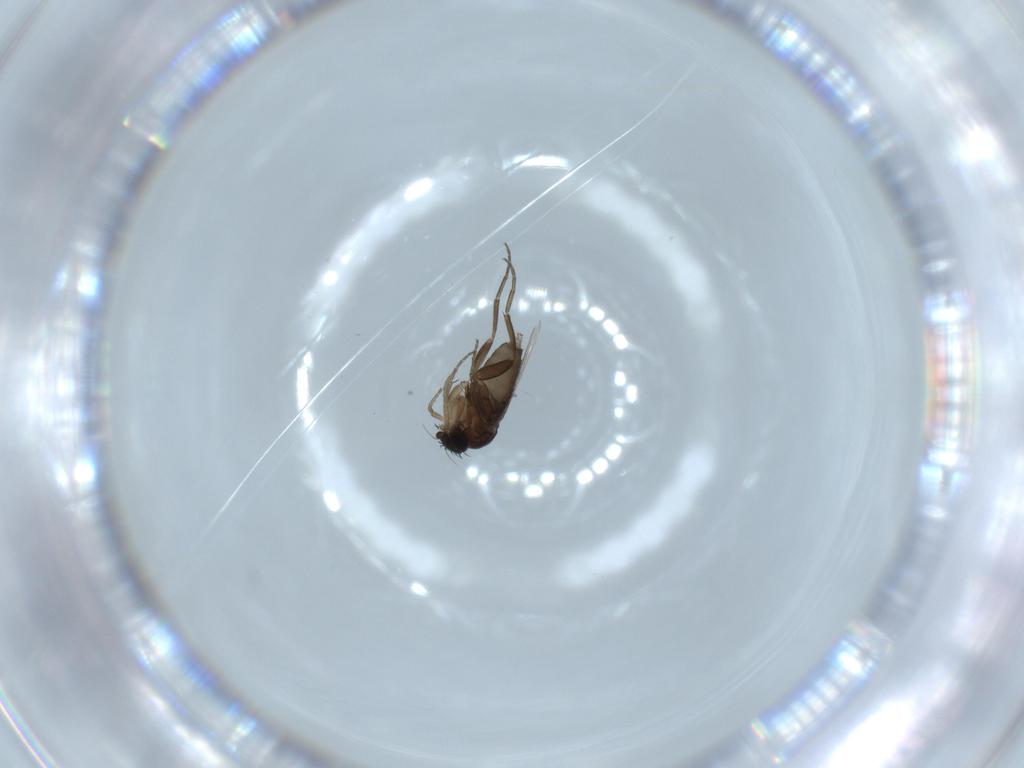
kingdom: Animalia
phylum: Arthropoda
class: Insecta
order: Diptera
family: Phoridae
